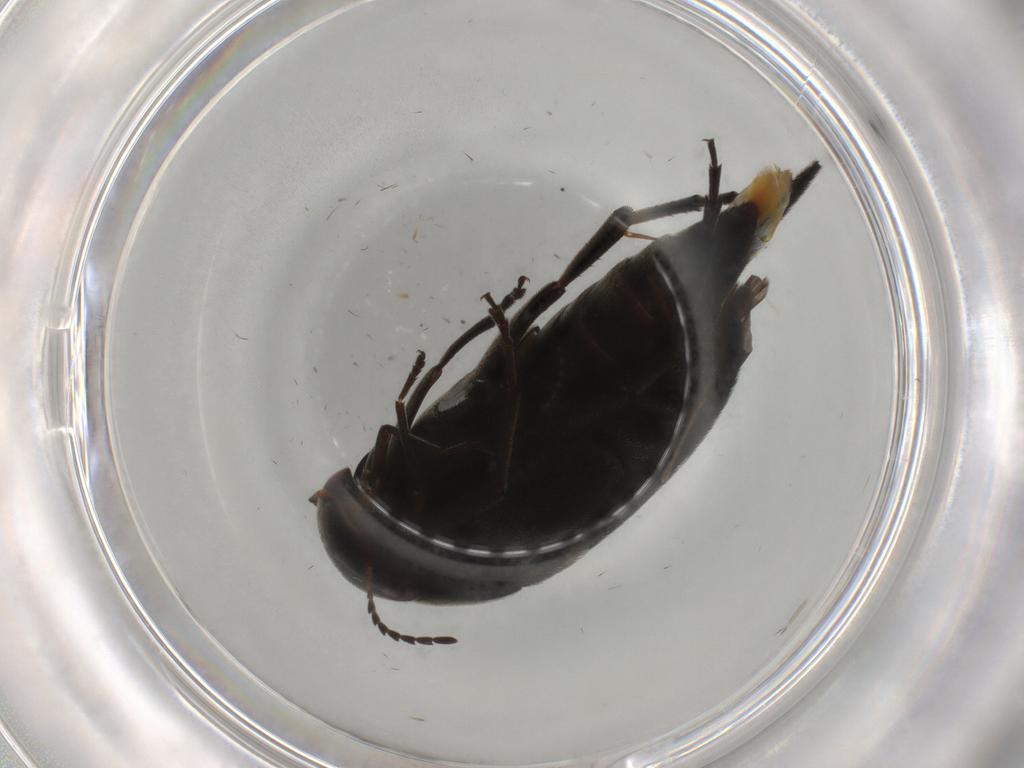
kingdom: Animalia
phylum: Arthropoda
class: Insecta
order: Coleoptera
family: Mordellidae
